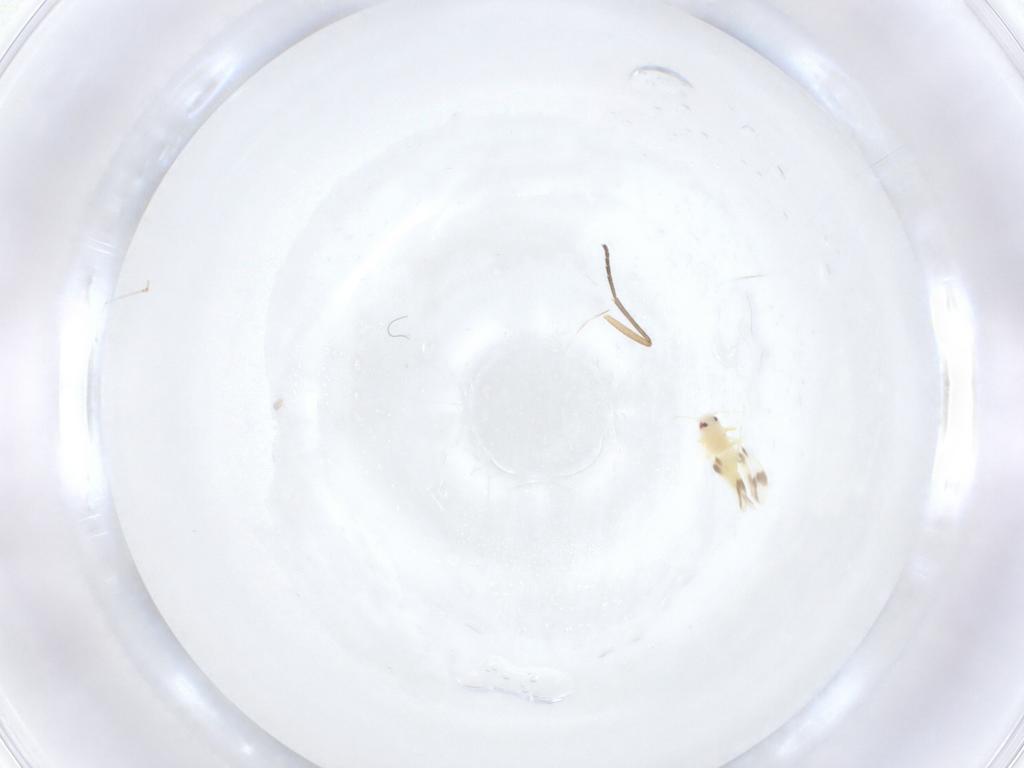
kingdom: Animalia
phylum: Arthropoda
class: Insecta
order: Hemiptera
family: Aleyrodidae
